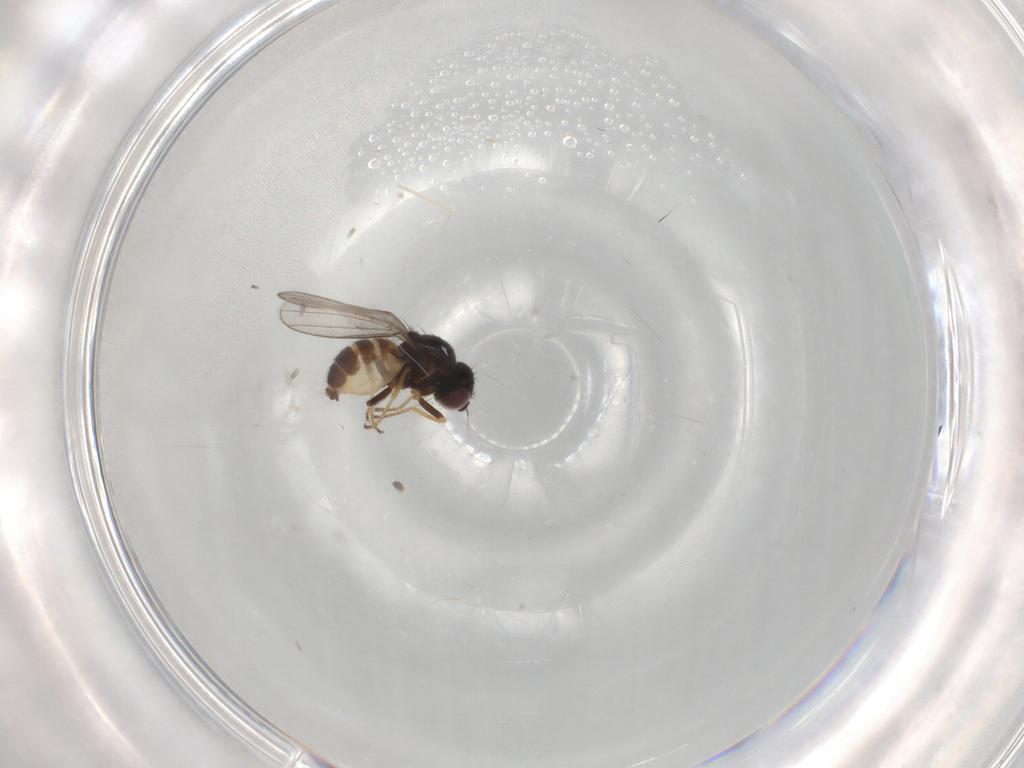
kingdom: Animalia
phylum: Arthropoda
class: Insecta
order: Diptera
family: Chloropidae
